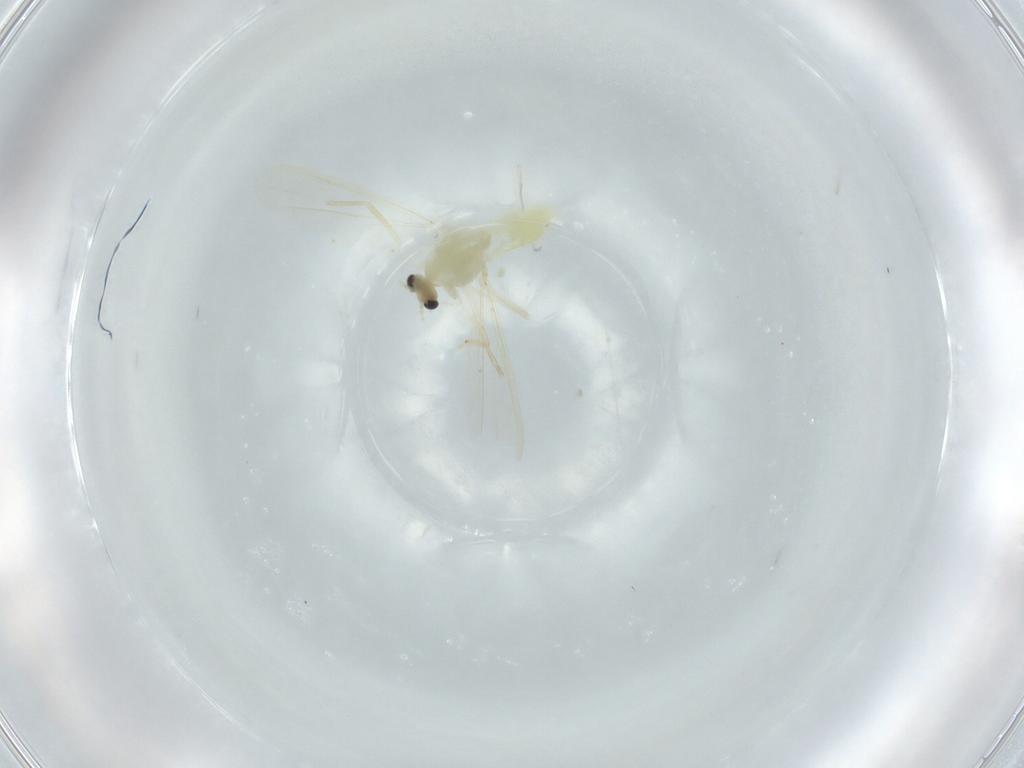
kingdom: Animalia
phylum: Arthropoda
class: Insecta
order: Diptera
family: Chironomidae
